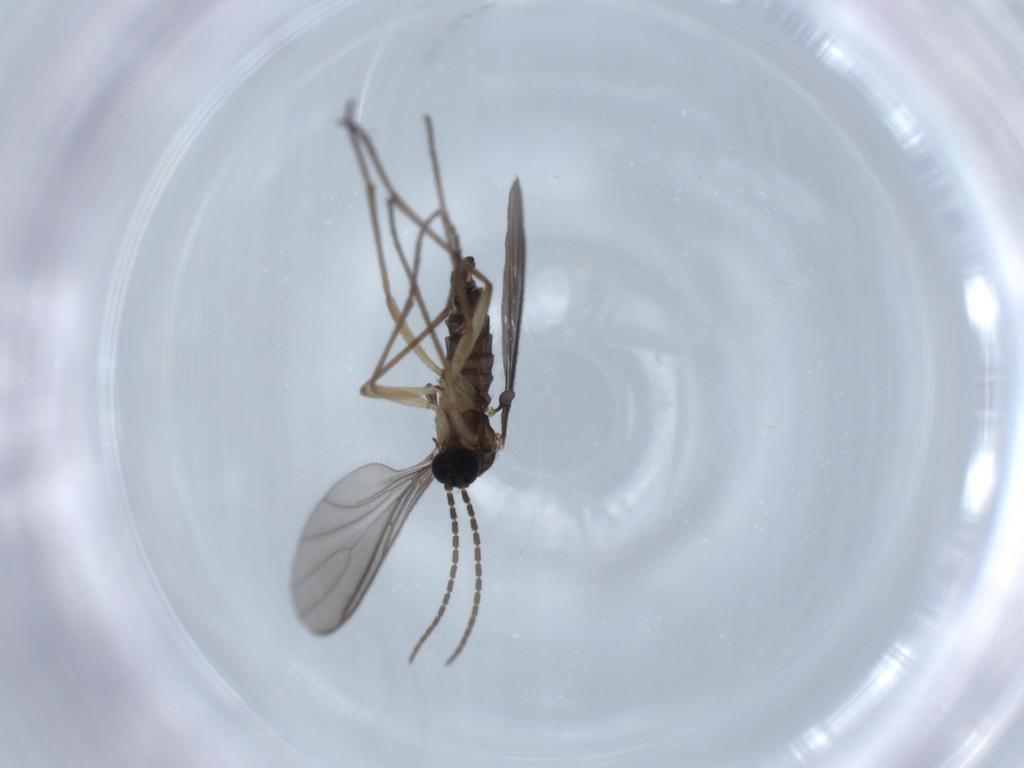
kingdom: Animalia
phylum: Arthropoda
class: Insecta
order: Diptera
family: Sciaridae
